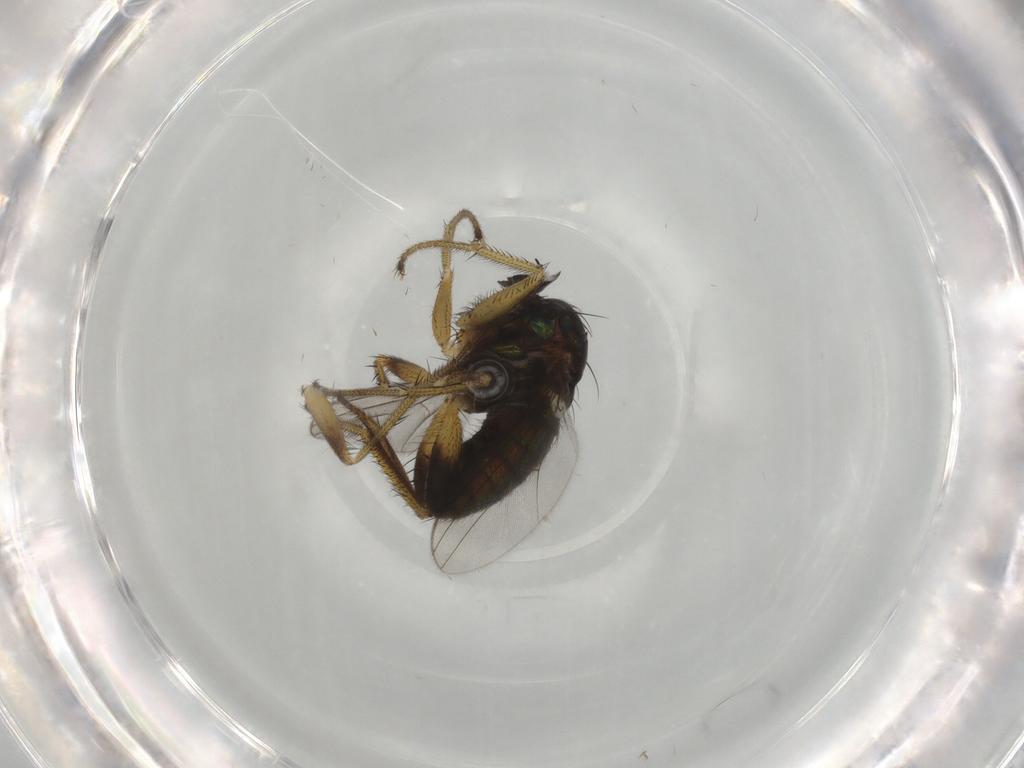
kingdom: Animalia
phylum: Arthropoda
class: Insecta
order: Diptera
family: Dolichopodidae
